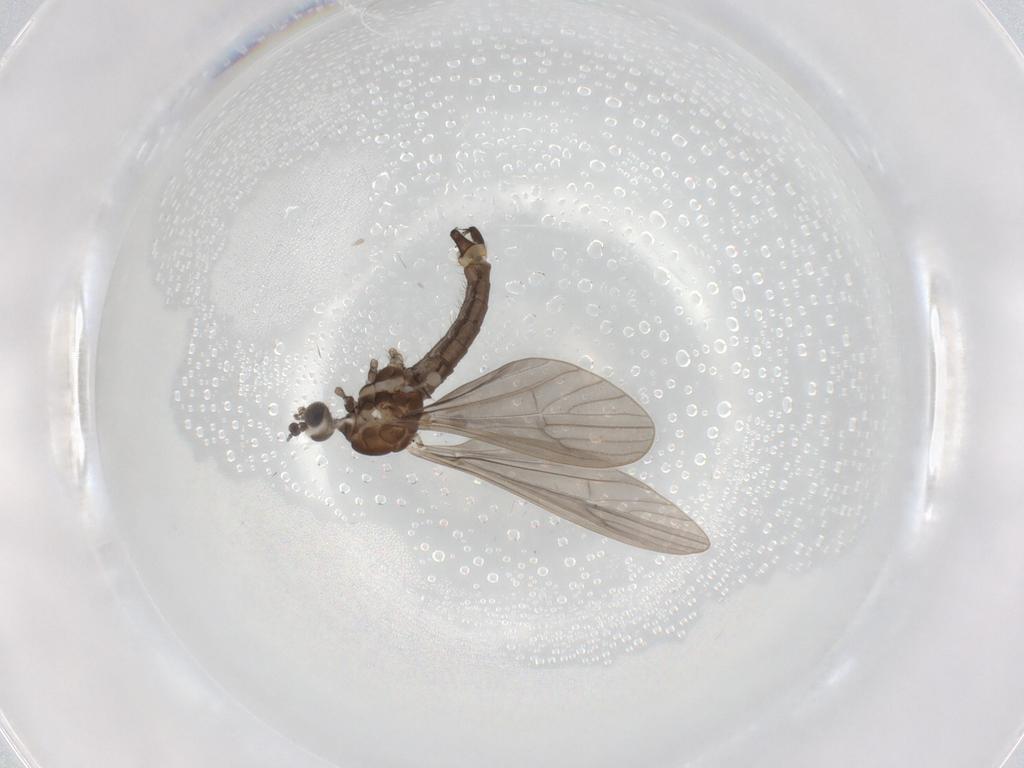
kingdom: Animalia
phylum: Arthropoda
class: Insecta
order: Diptera
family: Limoniidae
